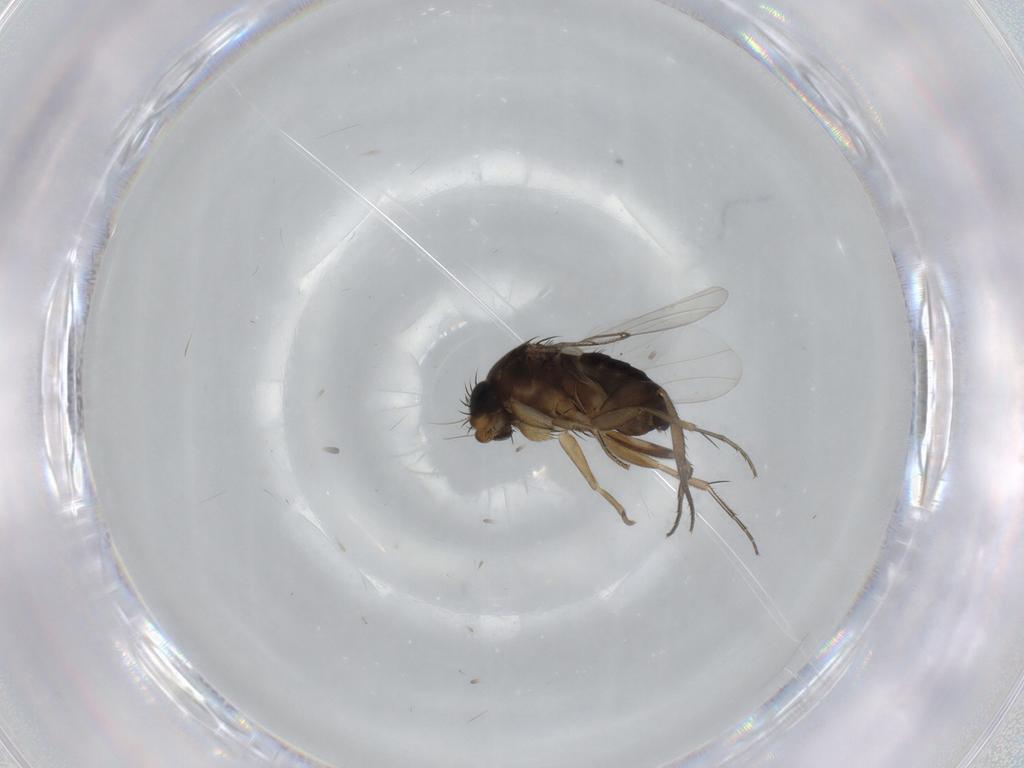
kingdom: Animalia
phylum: Arthropoda
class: Insecta
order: Diptera
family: Phoridae
